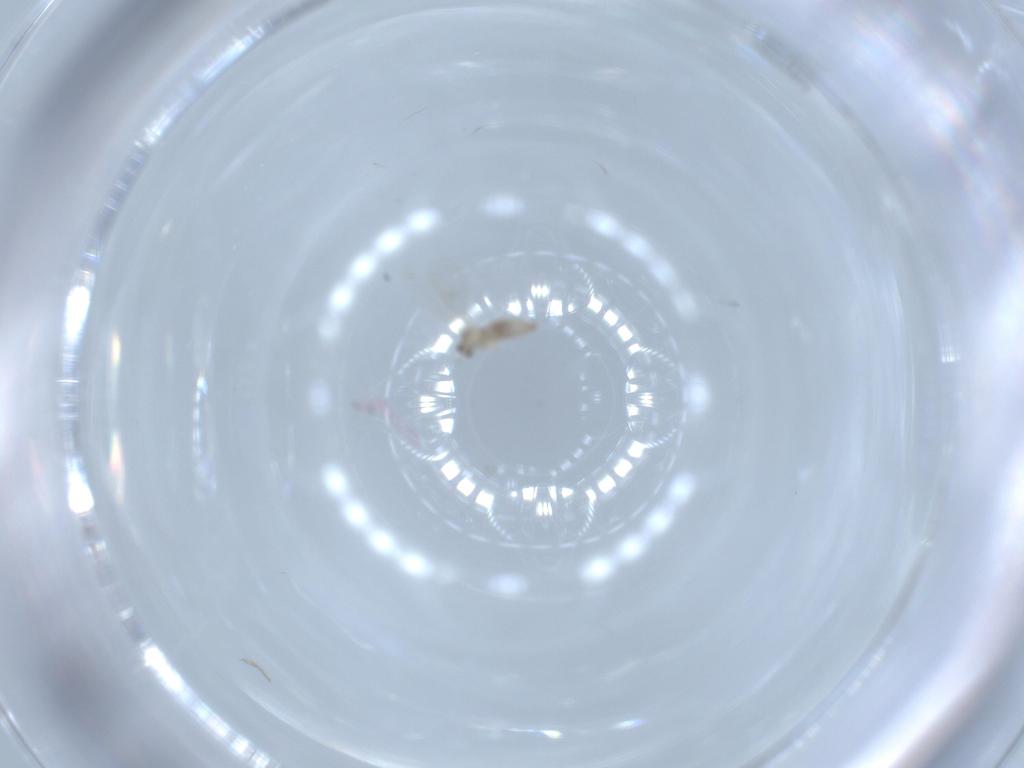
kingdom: Animalia
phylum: Arthropoda
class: Insecta
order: Diptera
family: Cecidomyiidae
